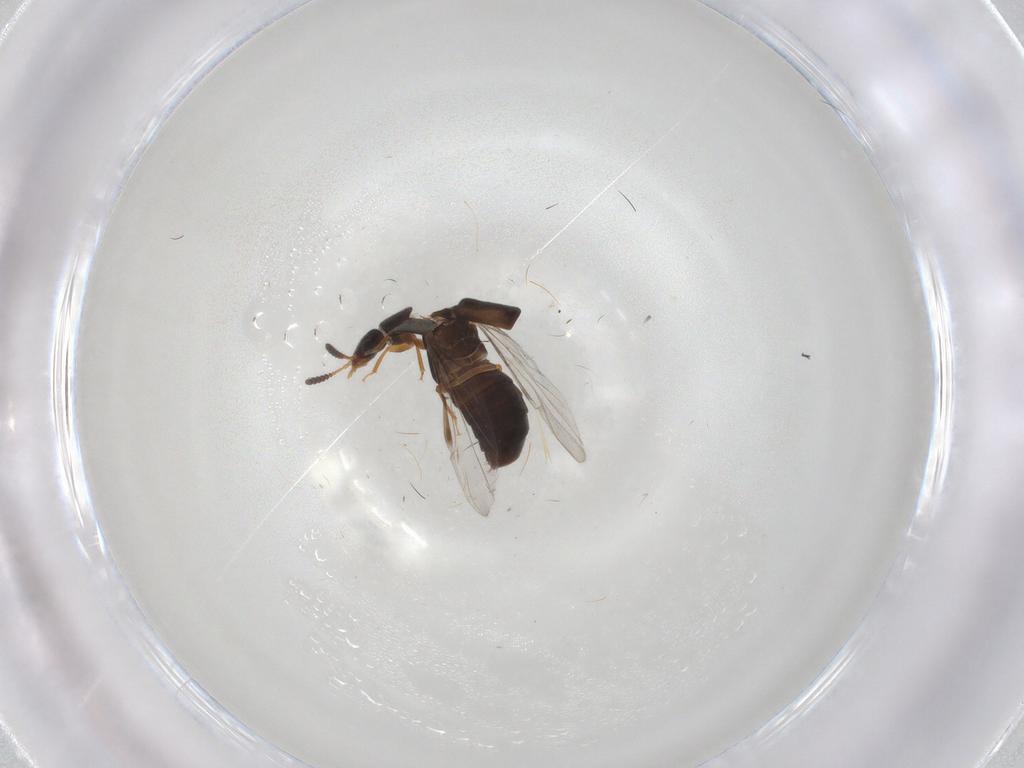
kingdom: Animalia
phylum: Arthropoda
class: Insecta
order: Coleoptera
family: Staphylinidae
